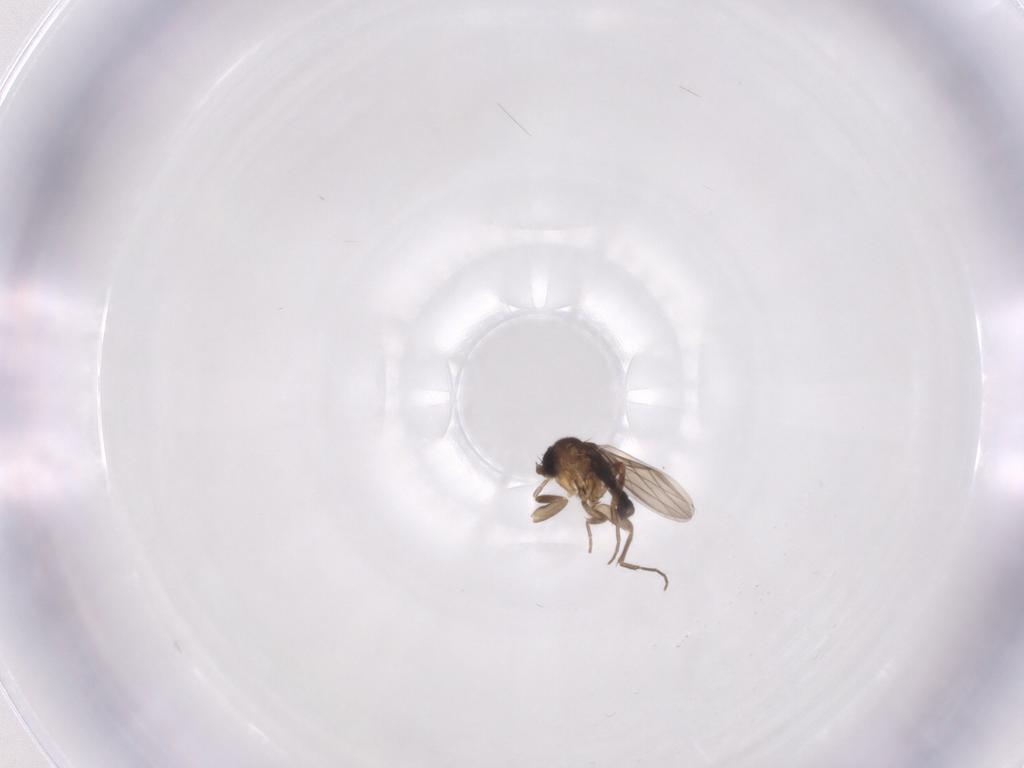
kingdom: Animalia
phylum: Arthropoda
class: Insecta
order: Diptera
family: Phoridae
